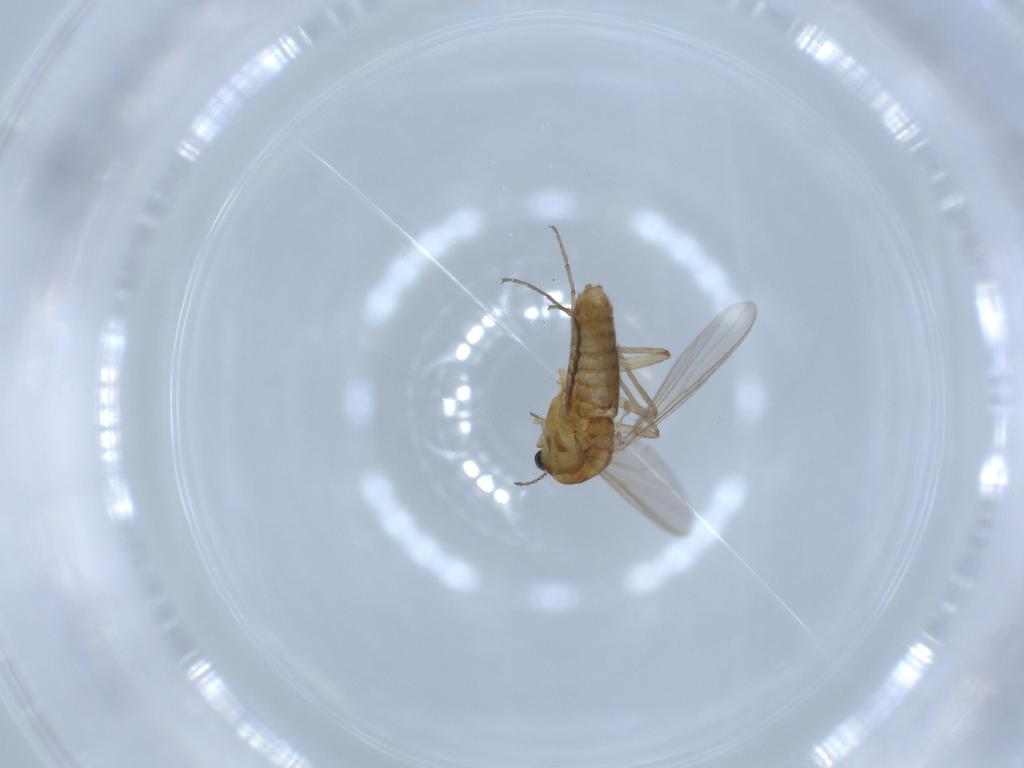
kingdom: Animalia
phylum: Arthropoda
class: Insecta
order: Diptera
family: Chironomidae
